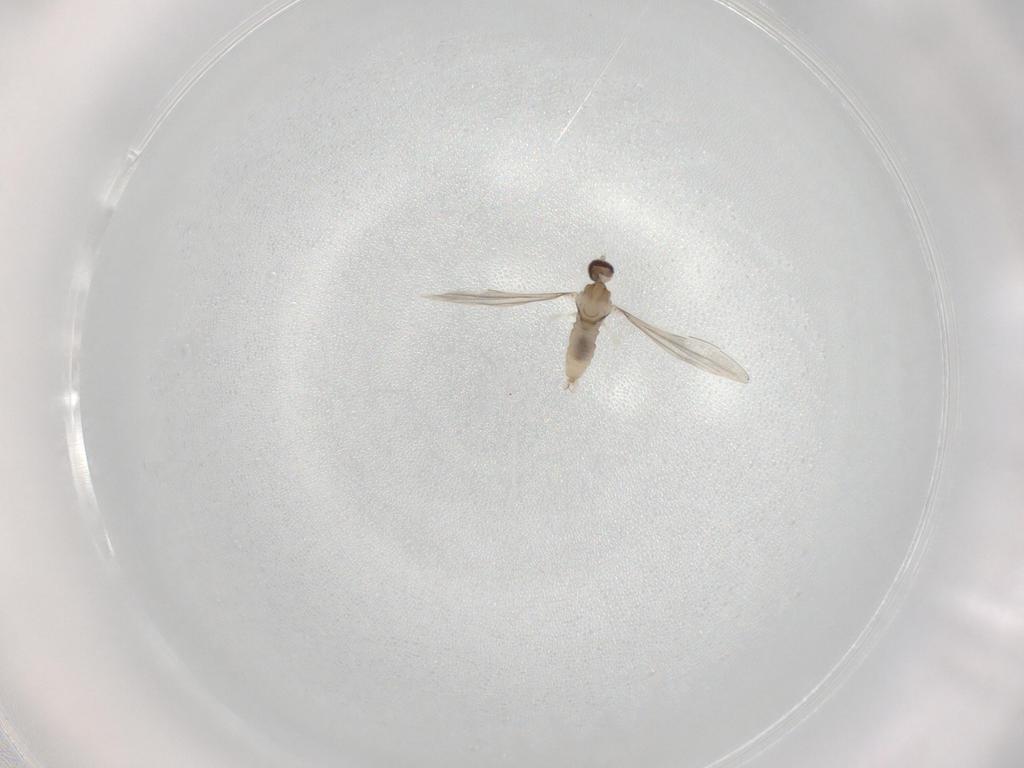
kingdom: Animalia
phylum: Arthropoda
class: Insecta
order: Diptera
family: Cecidomyiidae
